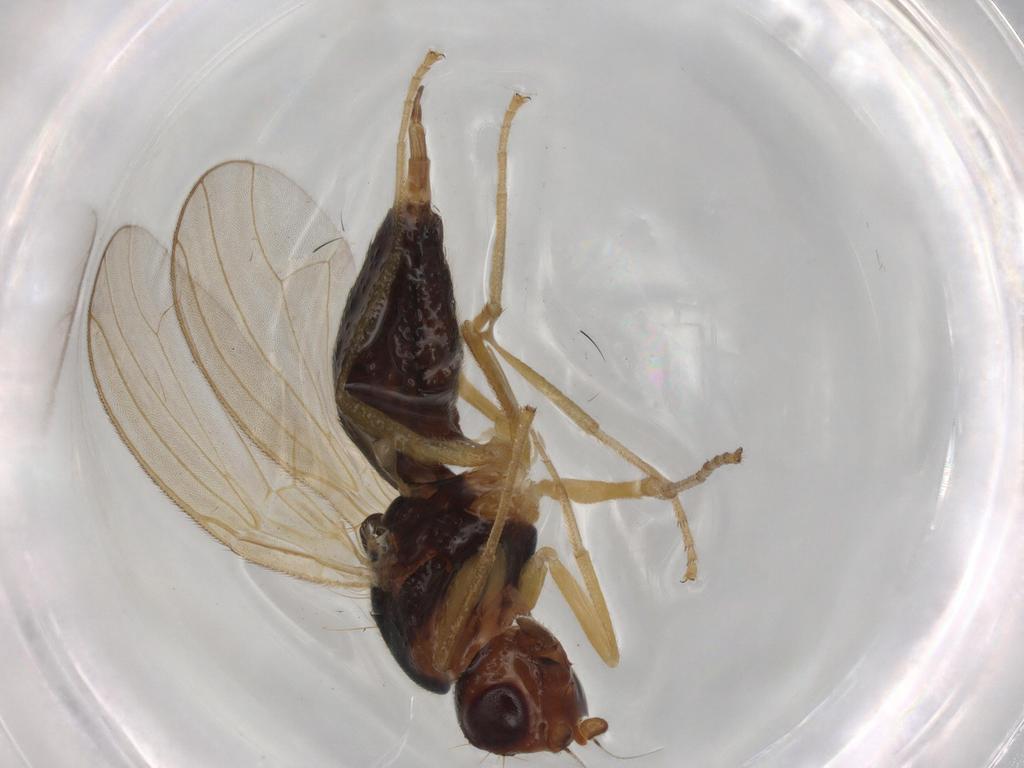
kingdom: Animalia
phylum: Arthropoda
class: Insecta
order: Diptera
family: Psilidae
